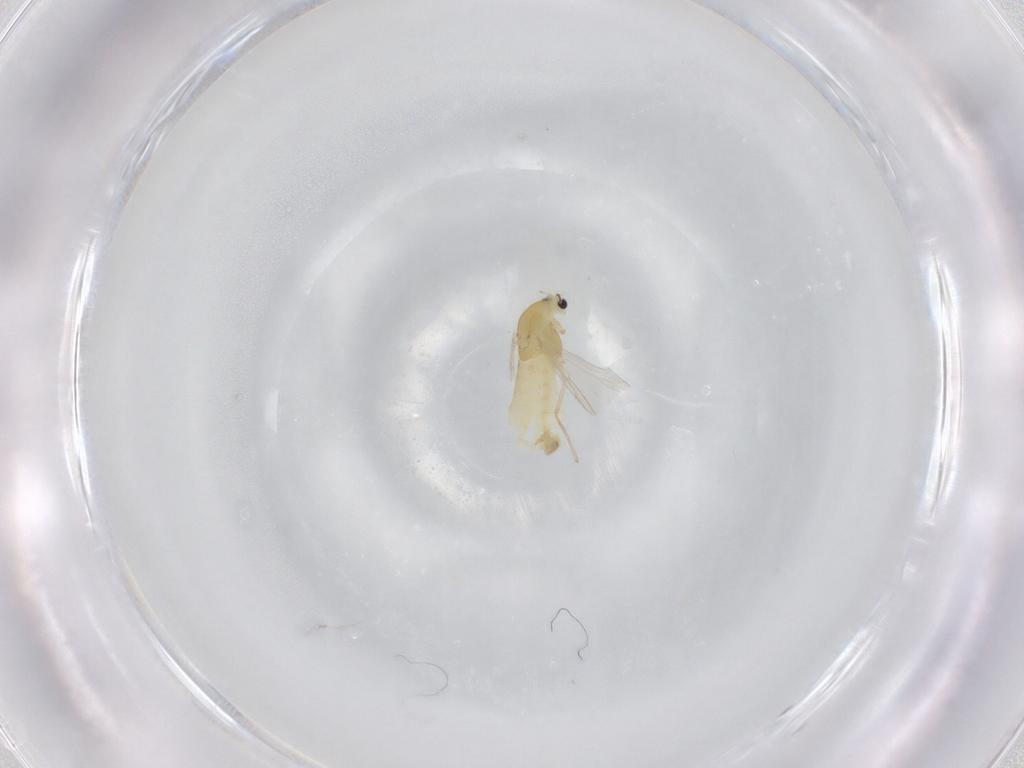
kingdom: Animalia
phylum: Arthropoda
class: Insecta
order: Diptera
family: Chironomidae
